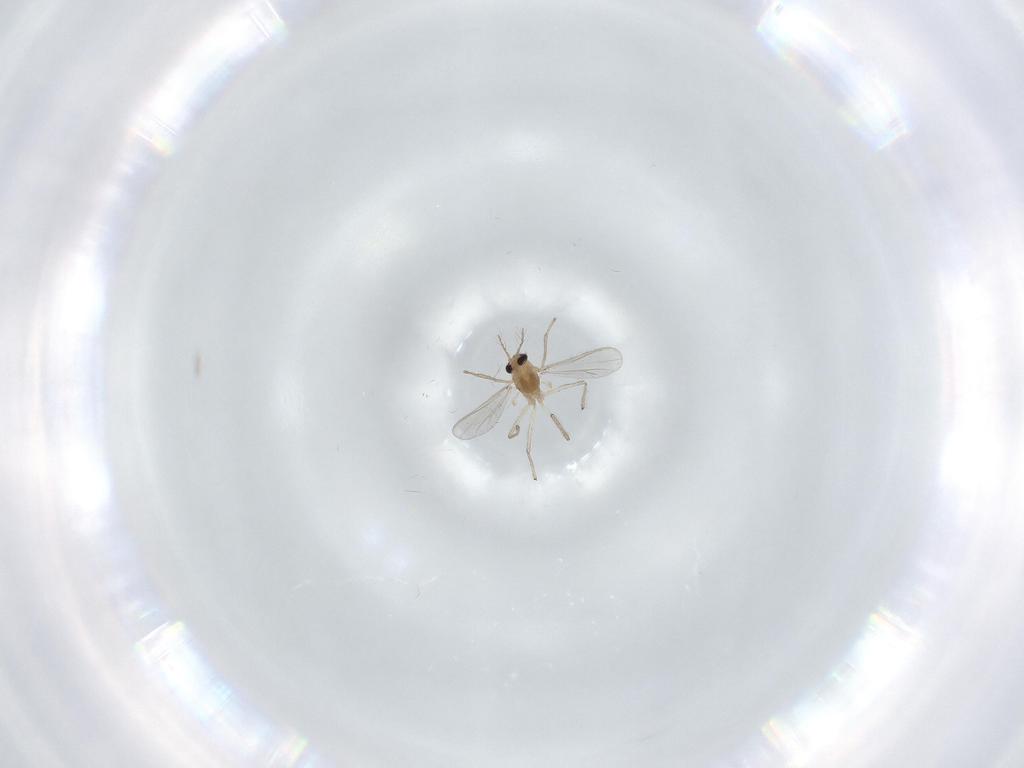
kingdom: Animalia
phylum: Arthropoda
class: Insecta
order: Diptera
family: Chironomidae
